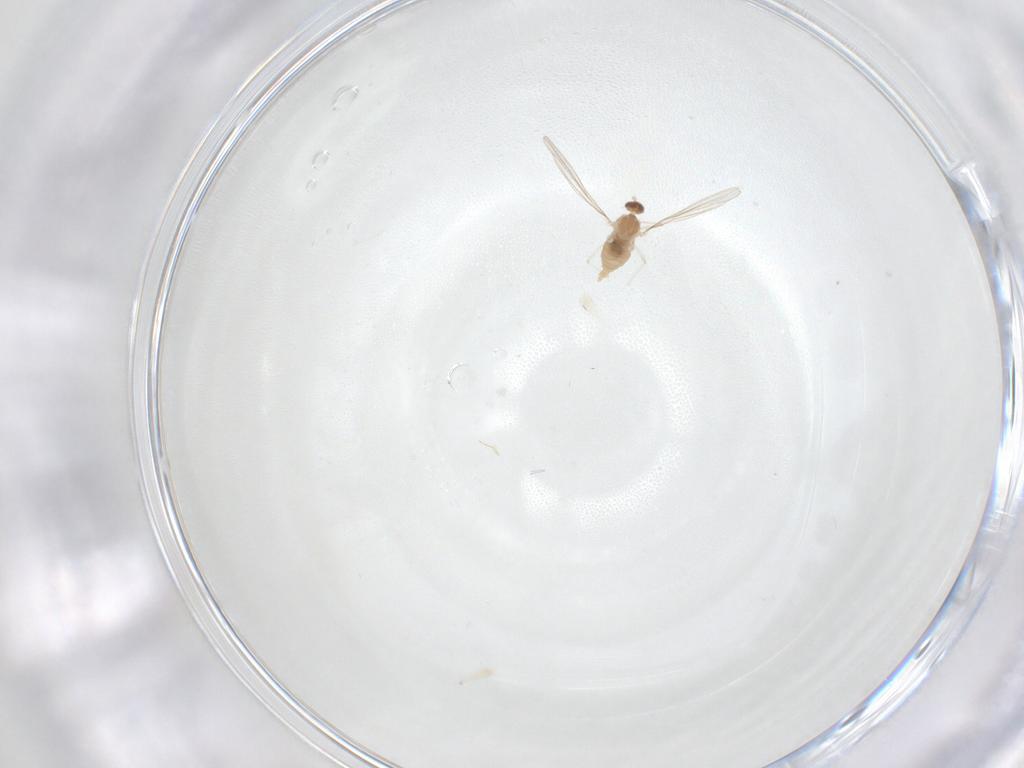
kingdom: Animalia
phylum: Arthropoda
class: Insecta
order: Diptera
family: Cecidomyiidae
